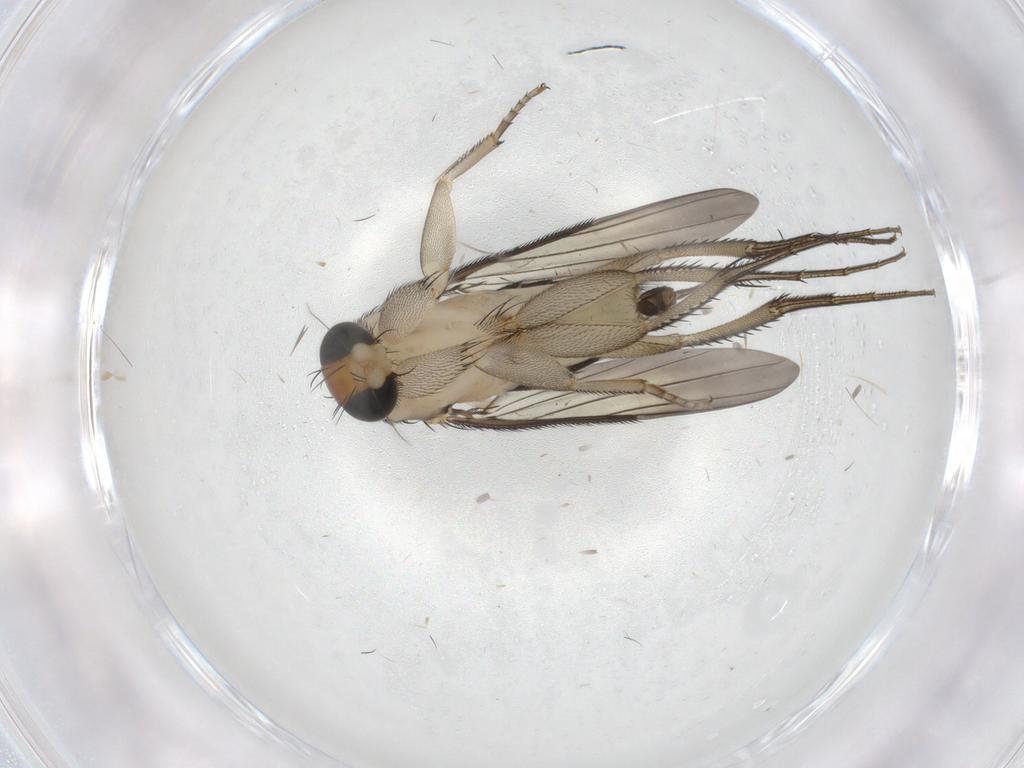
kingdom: Animalia
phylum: Arthropoda
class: Insecta
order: Diptera
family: Phoridae
